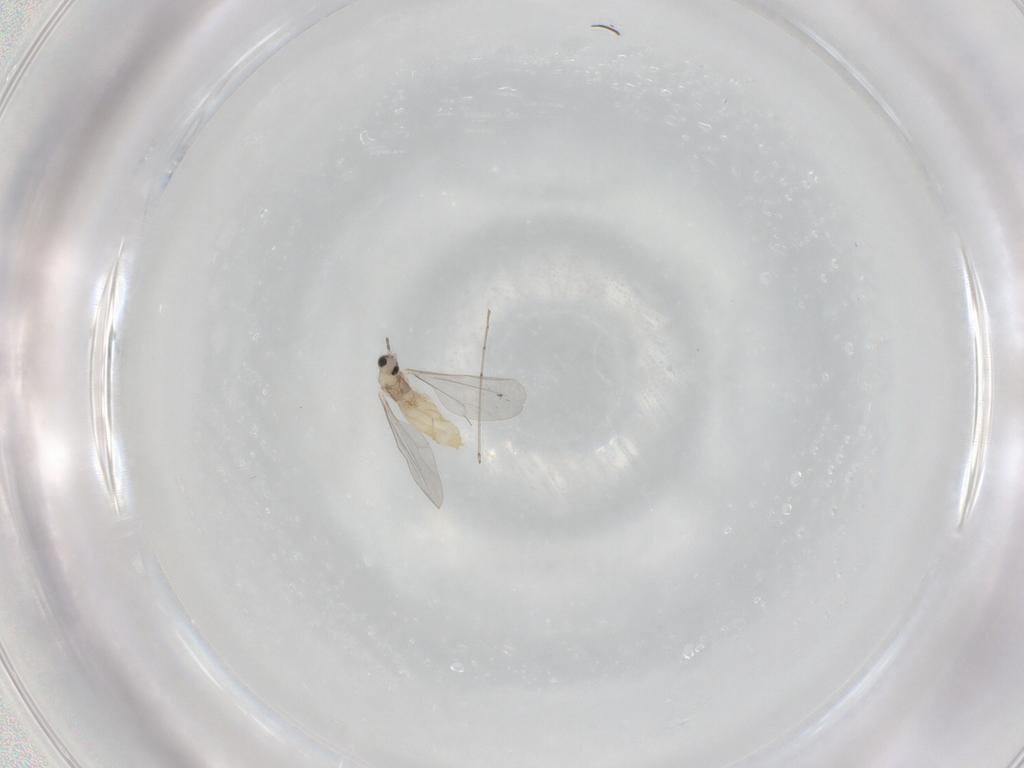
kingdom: Animalia
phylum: Arthropoda
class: Insecta
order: Diptera
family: Cecidomyiidae
